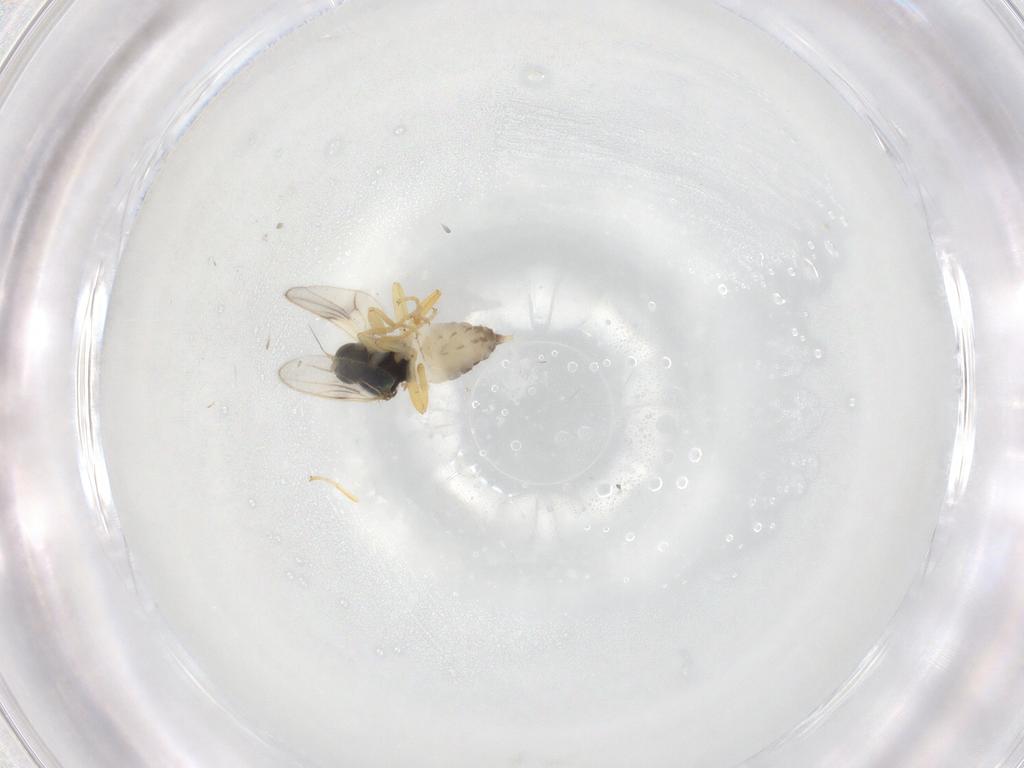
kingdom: Animalia
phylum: Arthropoda
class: Insecta
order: Diptera
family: Hybotidae
